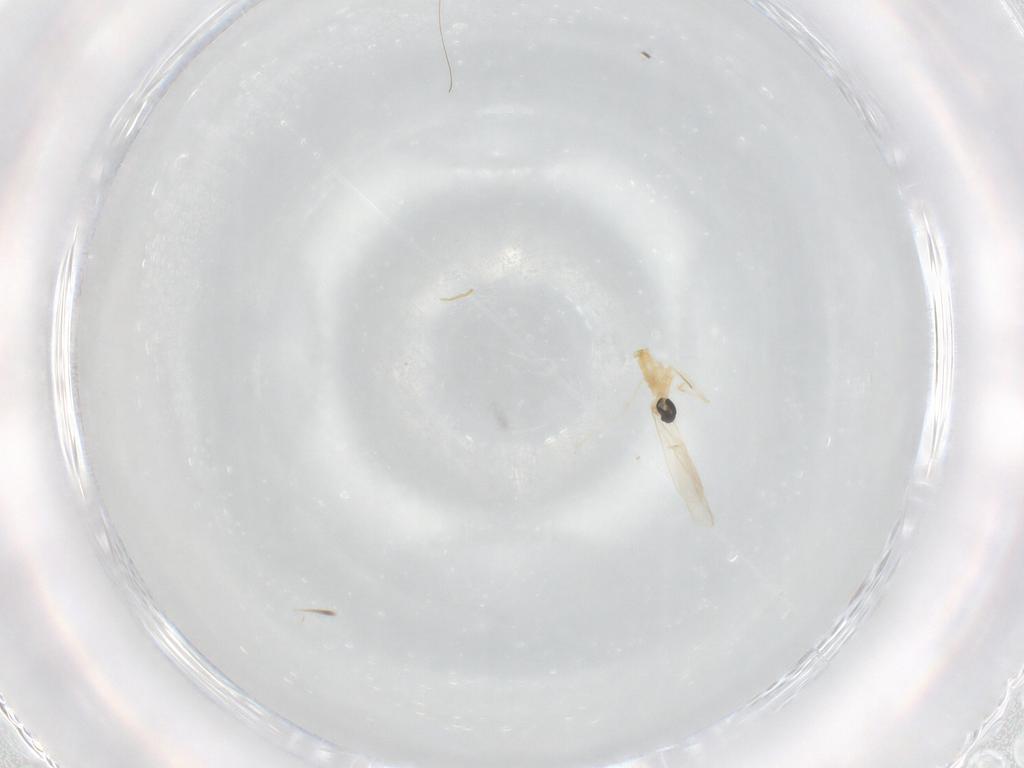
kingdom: Animalia
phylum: Arthropoda
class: Insecta
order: Diptera
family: Cecidomyiidae
